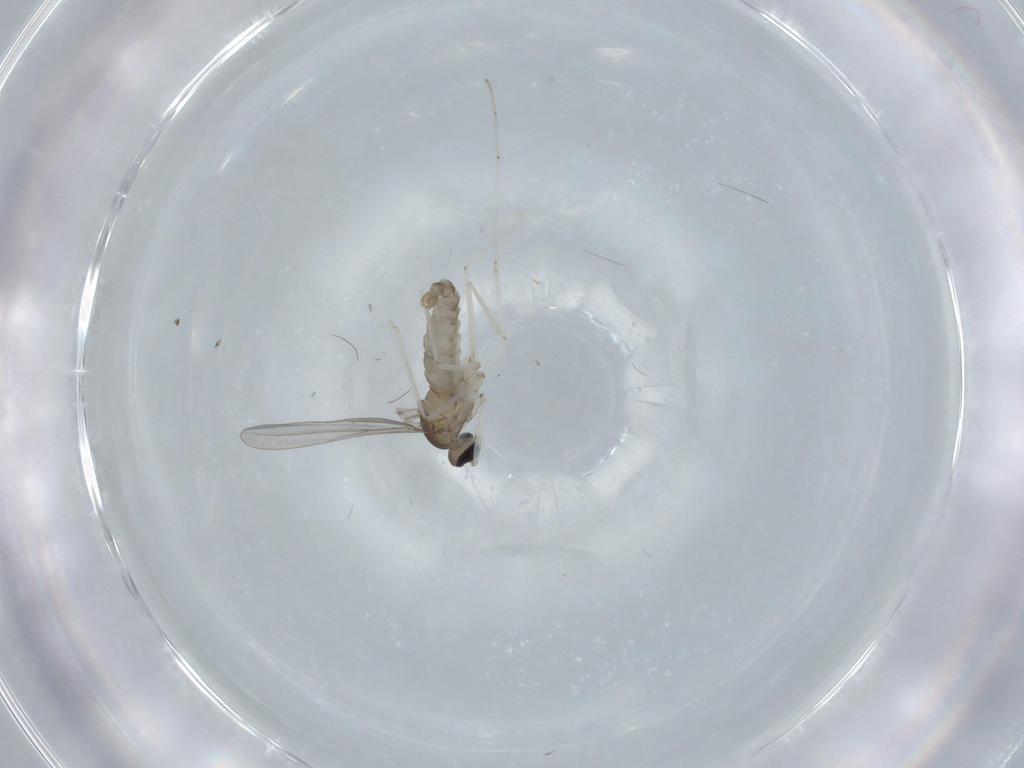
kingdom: Animalia
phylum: Arthropoda
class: Insecta
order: Diptera
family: Cecidomyiidae
